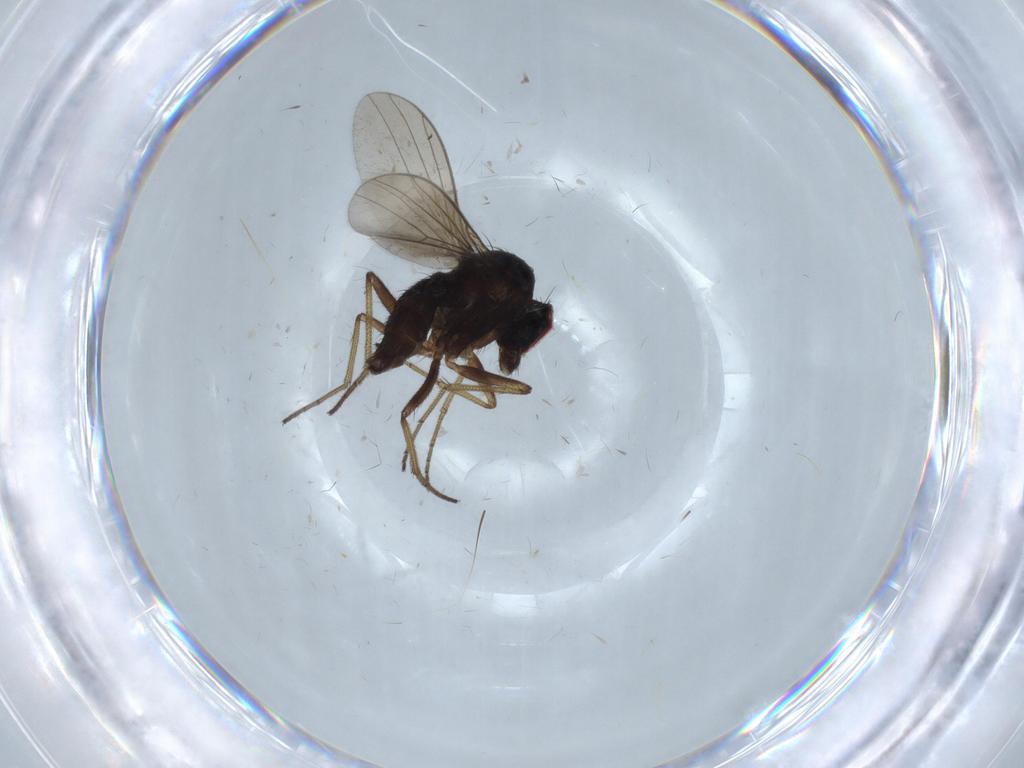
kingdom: Animalia
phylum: Arthropoda
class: Insecta
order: Diptera
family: Dolichopodidae
